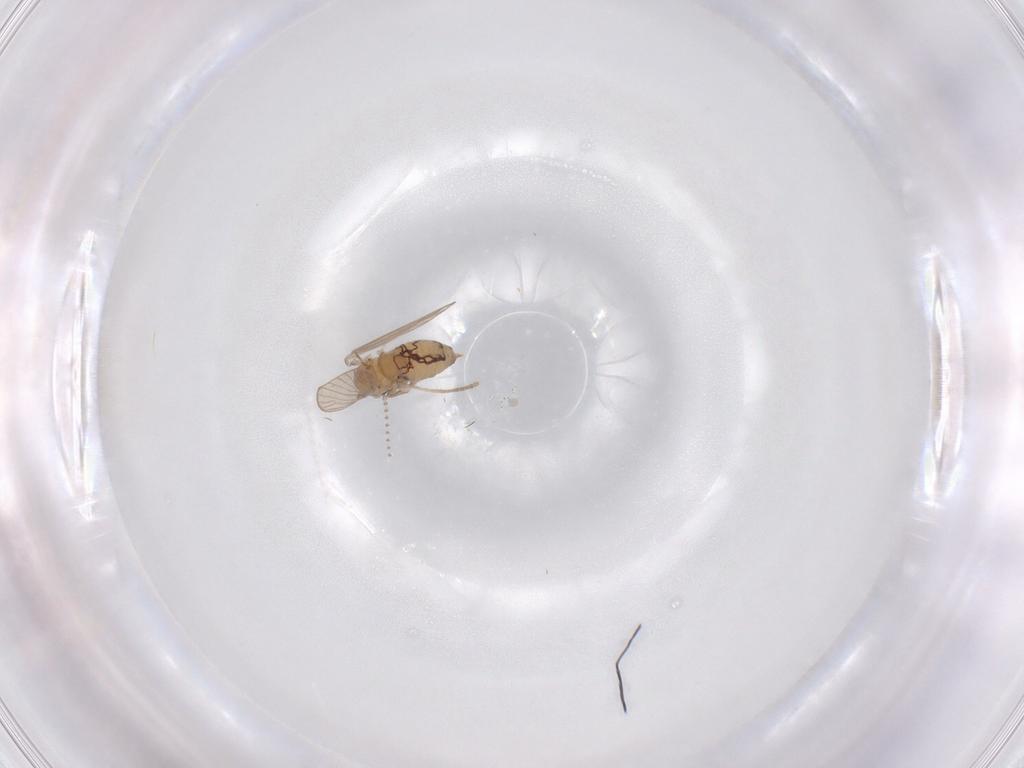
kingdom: Animalia
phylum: Arthropoda
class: Insecta
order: Diptera
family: Psychodidae
